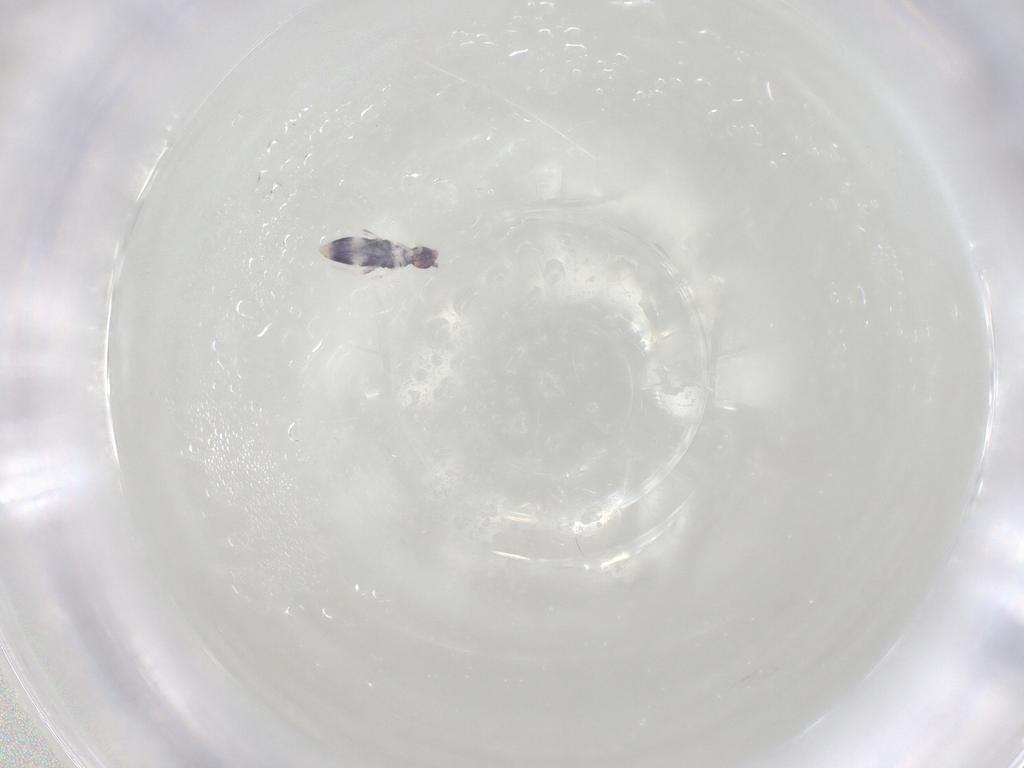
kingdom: Animalia
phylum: Arthropoda
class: Collembola
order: Entomobryomorpha
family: Entomobryidae
